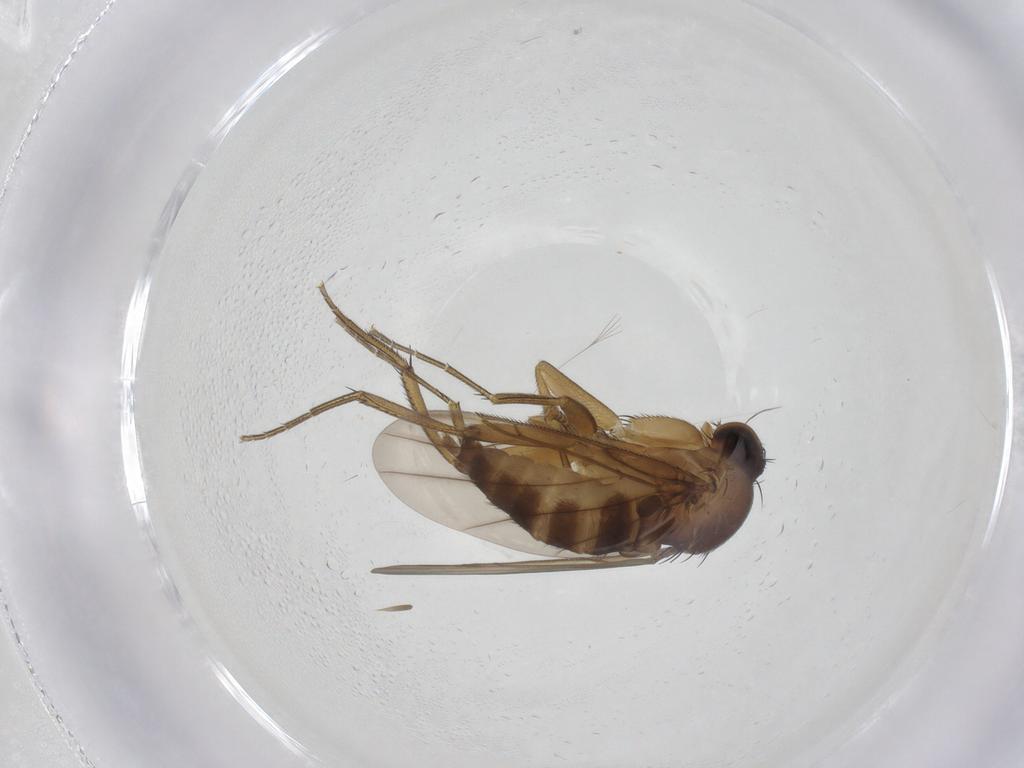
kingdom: Animalia
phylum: Arthropoda
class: Insecta
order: Diptera
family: Phoridae
